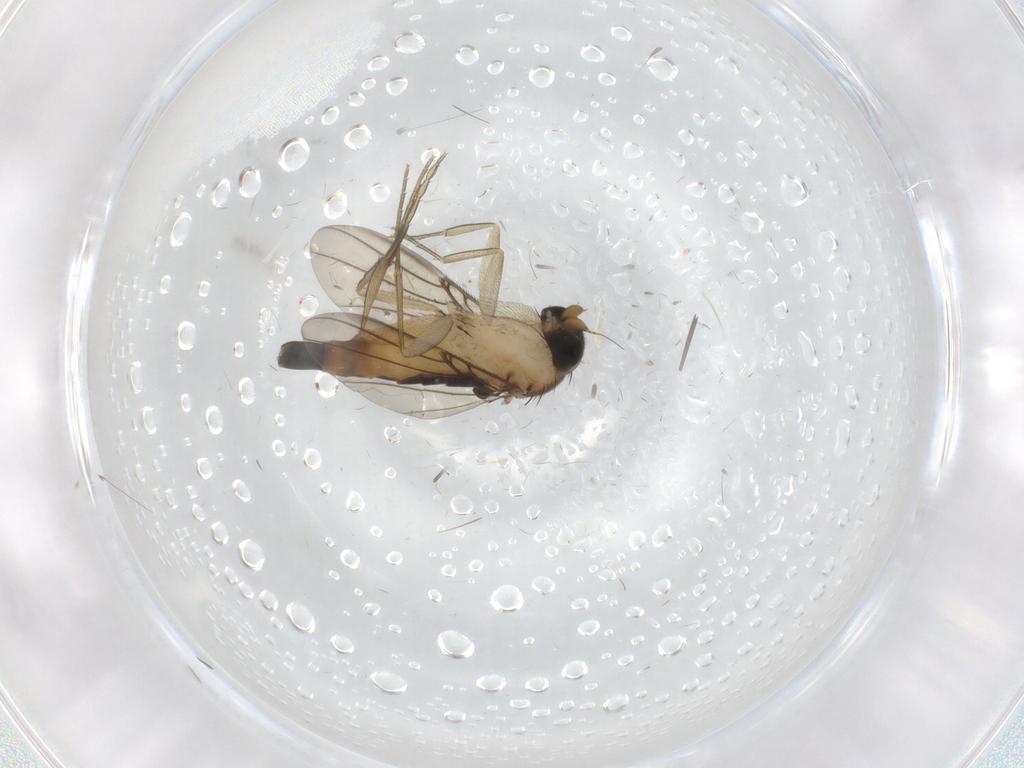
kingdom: Animalia
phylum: Arthropoda
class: Insecta
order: Diptera
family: Phoridae
